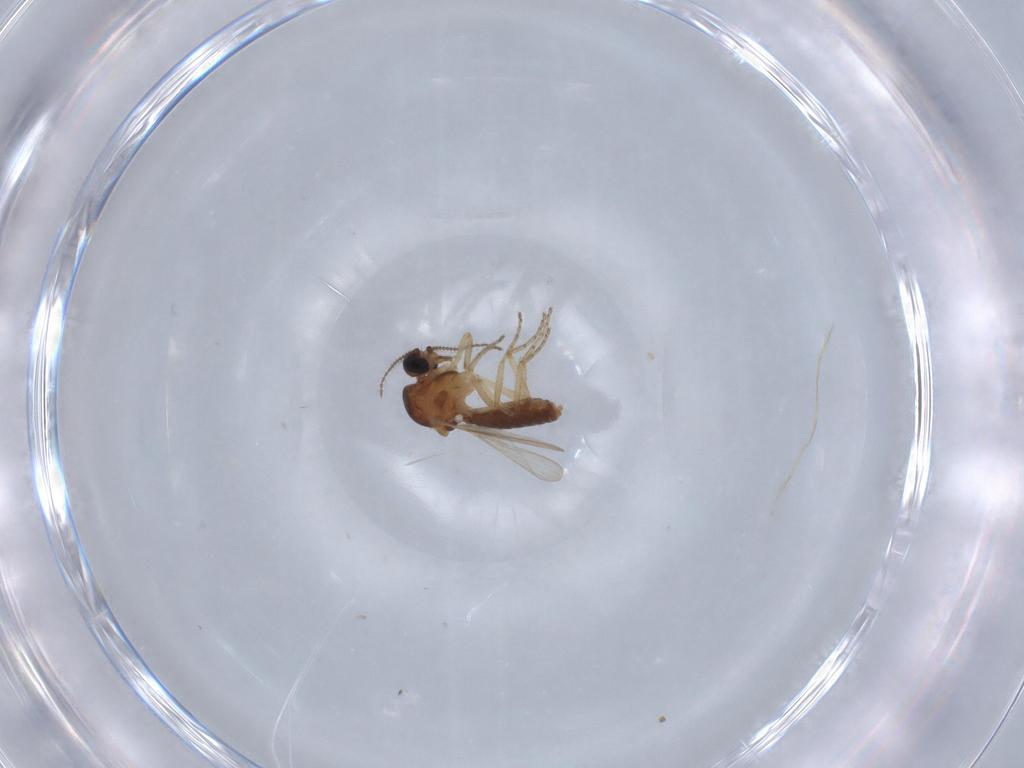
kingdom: Animalia
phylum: Arthropoda
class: Insecta
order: Diptera
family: Ceratopogonidae
